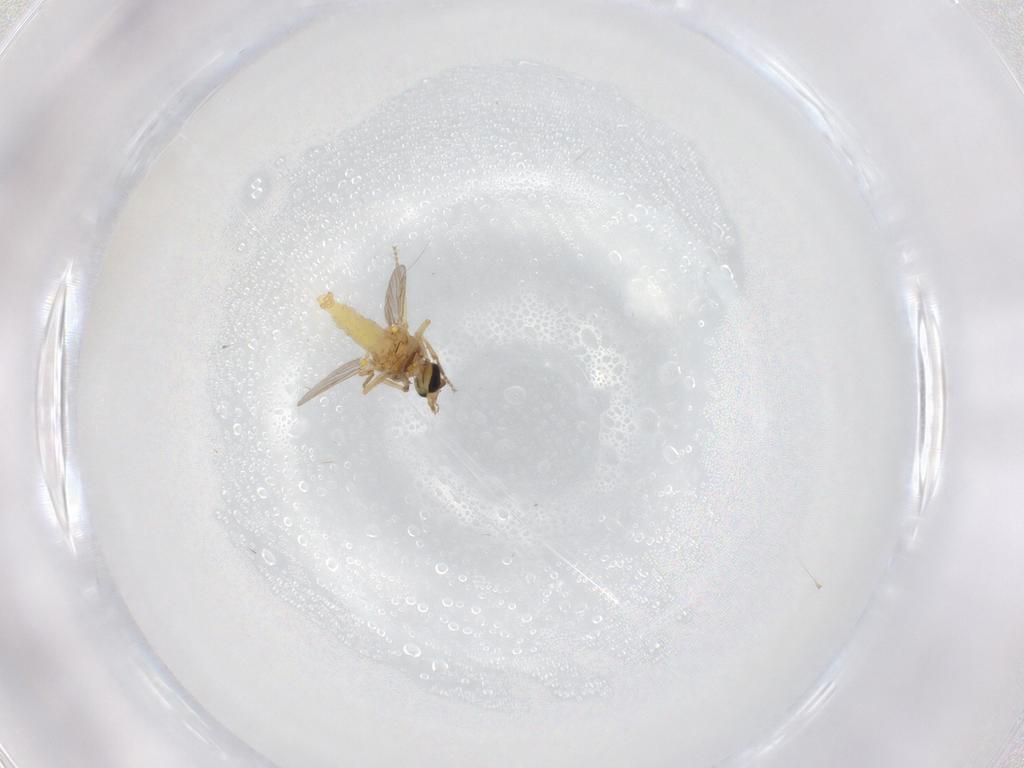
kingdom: Animalia
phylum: Arthropoda
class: Insecta
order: Diptera
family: Ceratopogonidae
